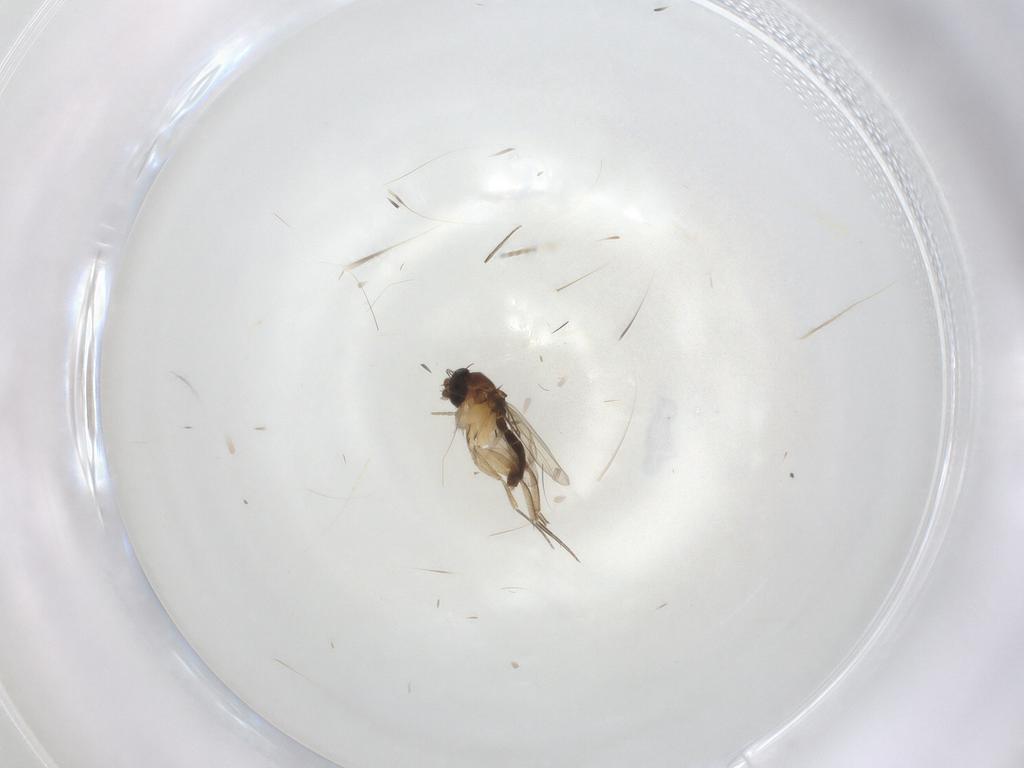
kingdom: Animalia
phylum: Arthropoda
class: Insecta
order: Diptera
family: Phoridae
